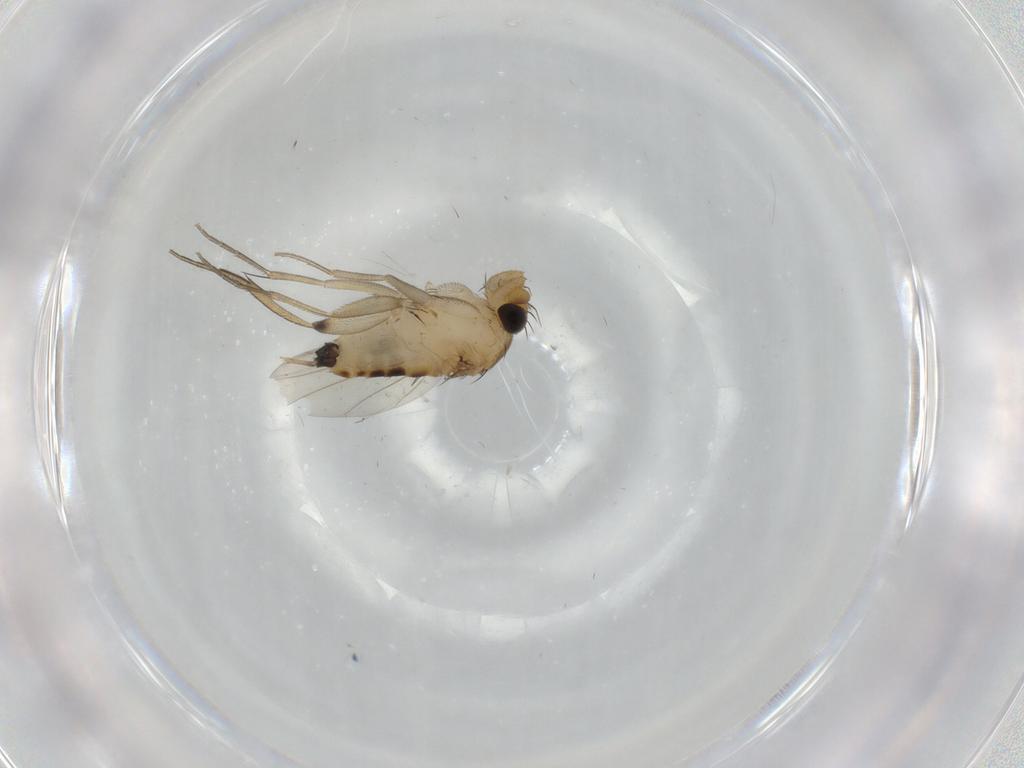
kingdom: Animalia
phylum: Arthropoda
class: Insecta
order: Diptera
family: Phoridae
